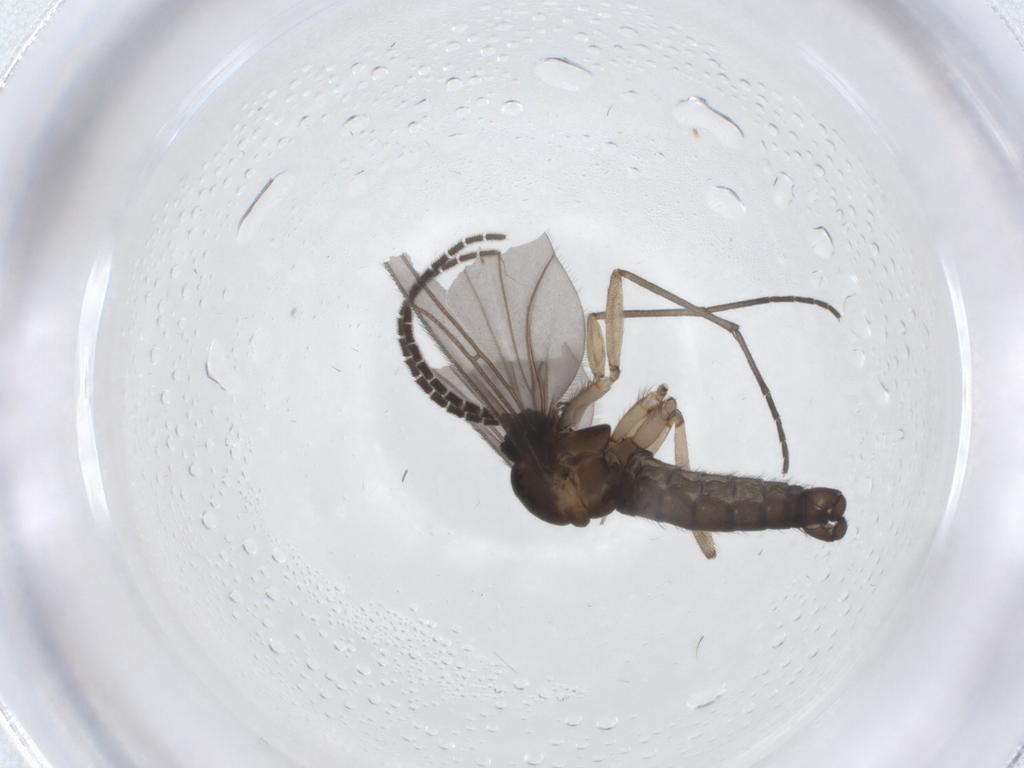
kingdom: Animalia
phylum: Arthropoda
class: Insecta
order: Diptera
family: Sciaridae
